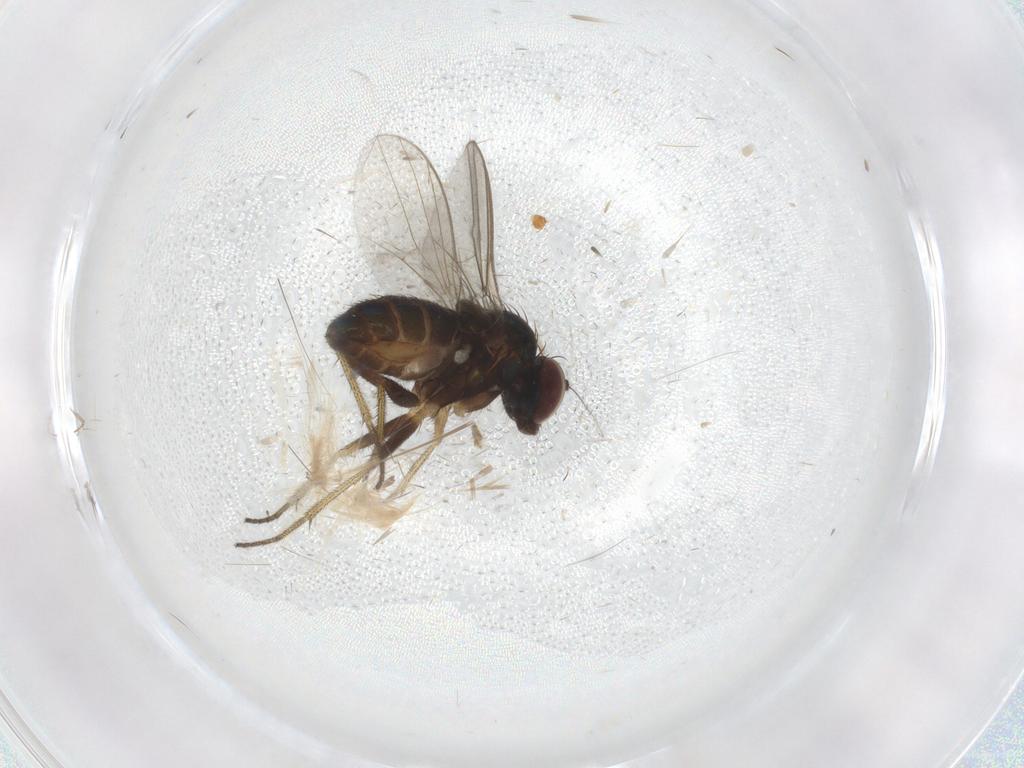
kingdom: Animalia
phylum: Arthropoda
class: Insecta
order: Diptera
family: Dolichopodidae
